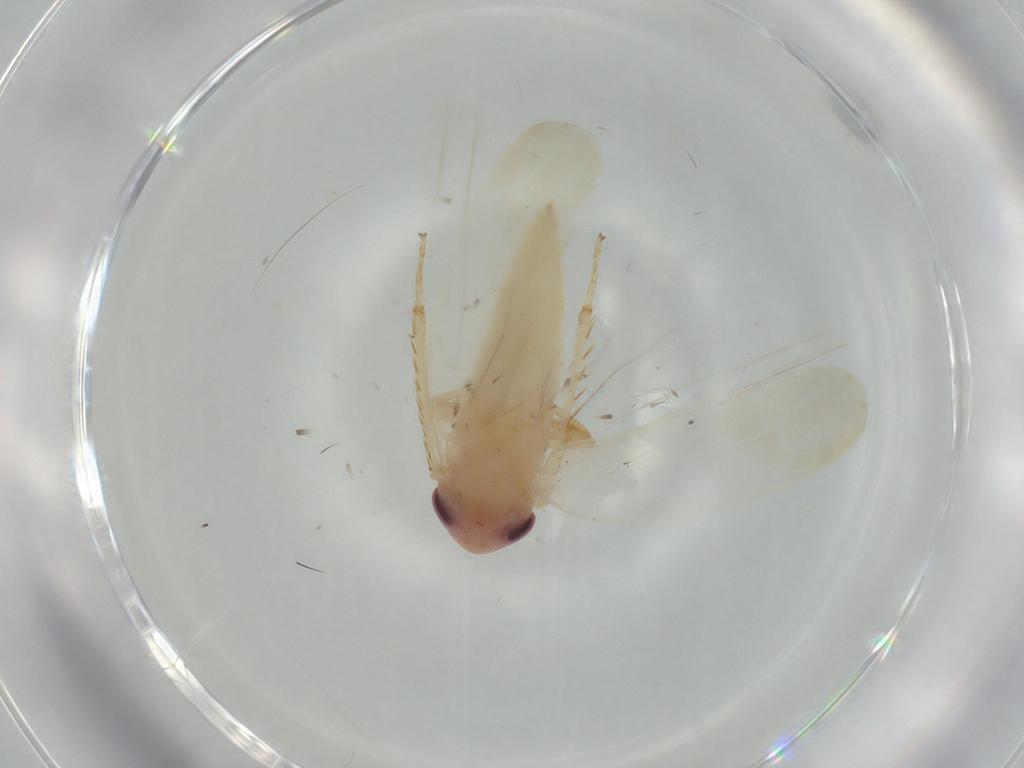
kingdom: Animalia
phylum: Arthropoda
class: Insecta
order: Hemiptera
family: Cicadellidae
